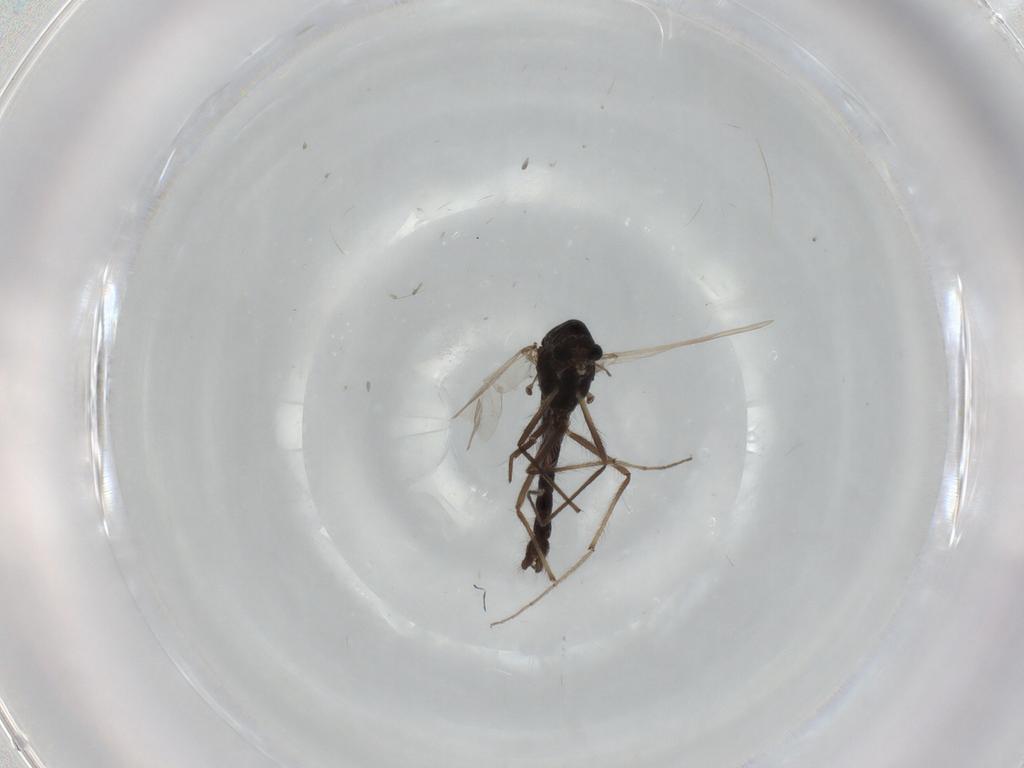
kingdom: Animalia
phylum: Arthropoda
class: Insecta
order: Diptera
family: Chironomidae
